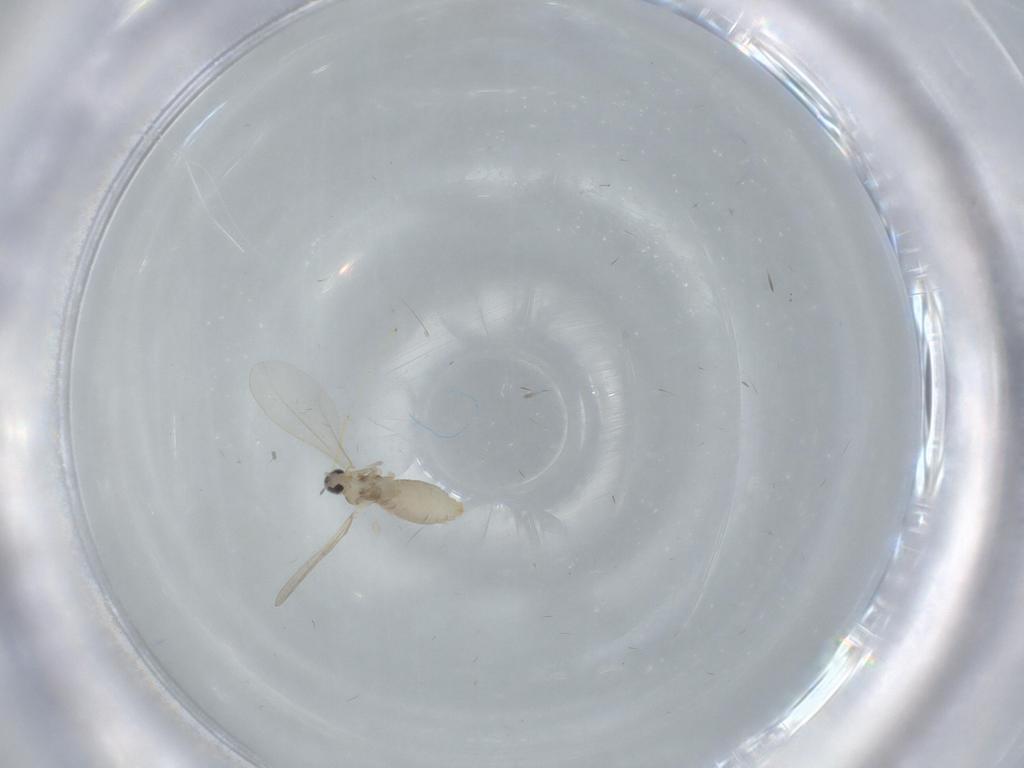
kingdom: Animalia
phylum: Arthropoda
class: Insecta
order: Diptera
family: Cecidomyiidae
